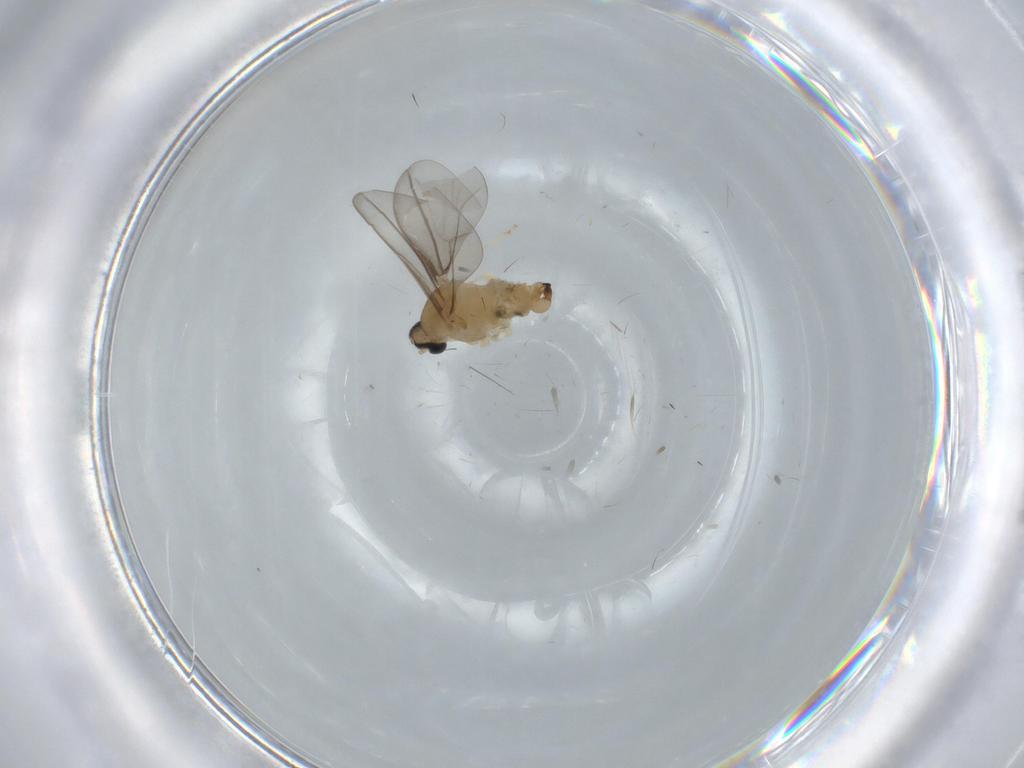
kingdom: Animalia
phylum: Arthropoda
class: Insecta
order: Diptera
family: Cecidomyiidae
